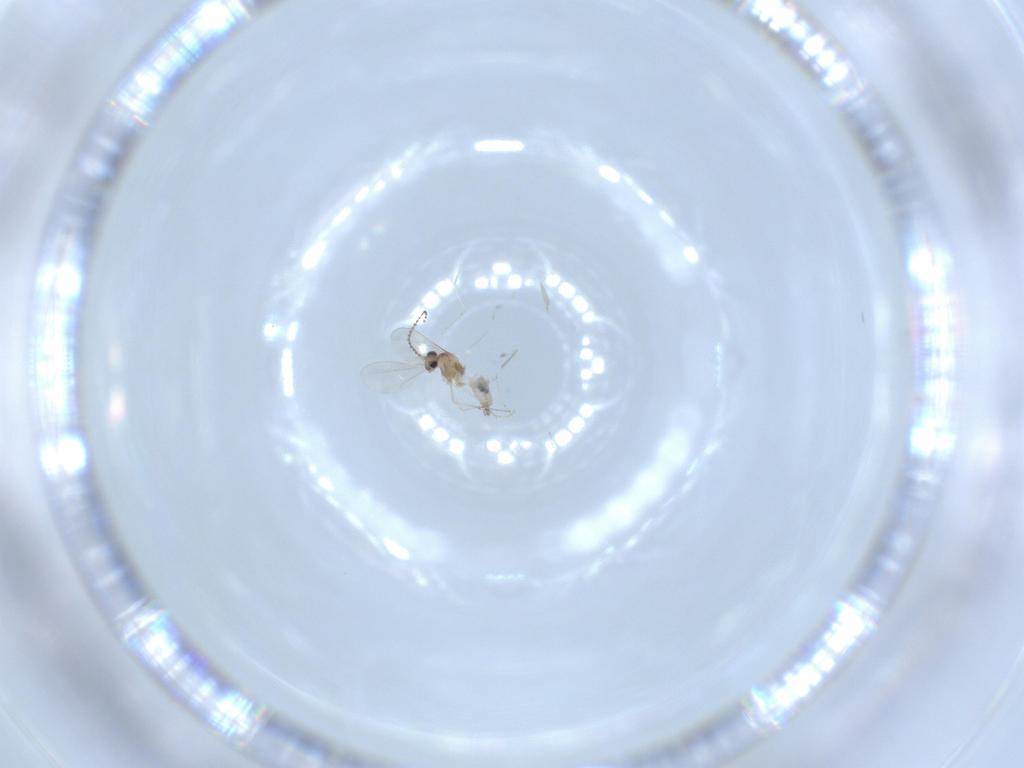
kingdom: Animalia
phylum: Arthropoda
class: Insecta
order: Diptera
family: Cecidomyiidae
